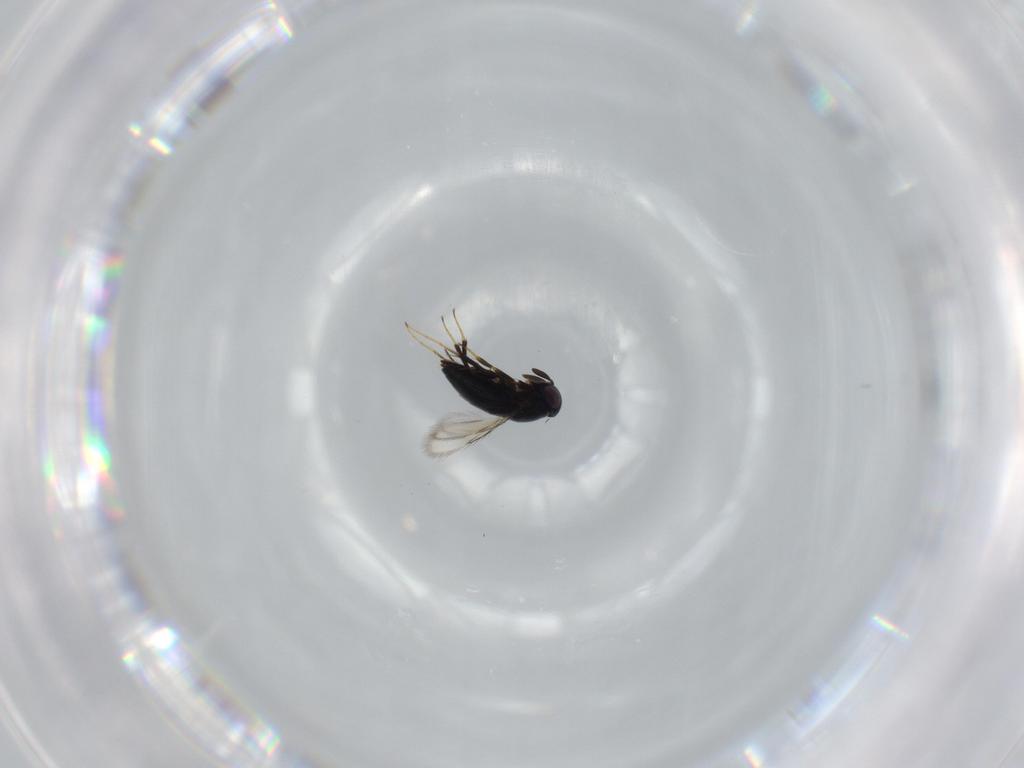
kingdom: Animalia
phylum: Arthropoda
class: Insecta
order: Hymenoptera
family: Signiphoridae
